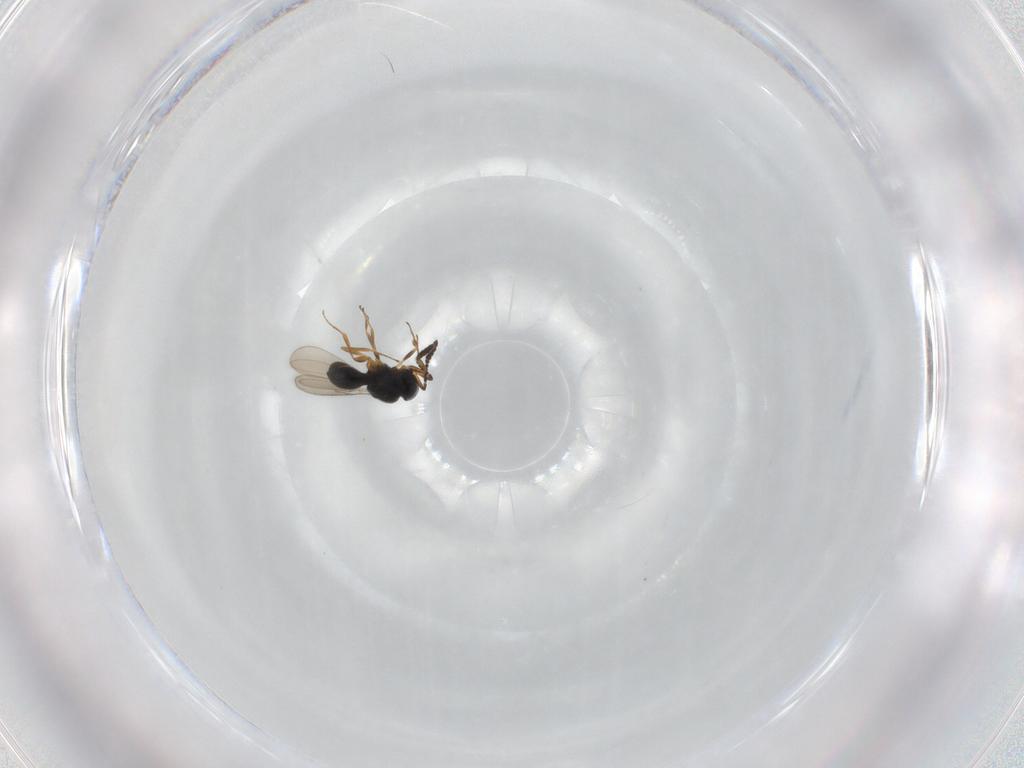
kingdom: Animalia
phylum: Arthropoda
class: Insecta
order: Hymenoptera
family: Scelionidae
